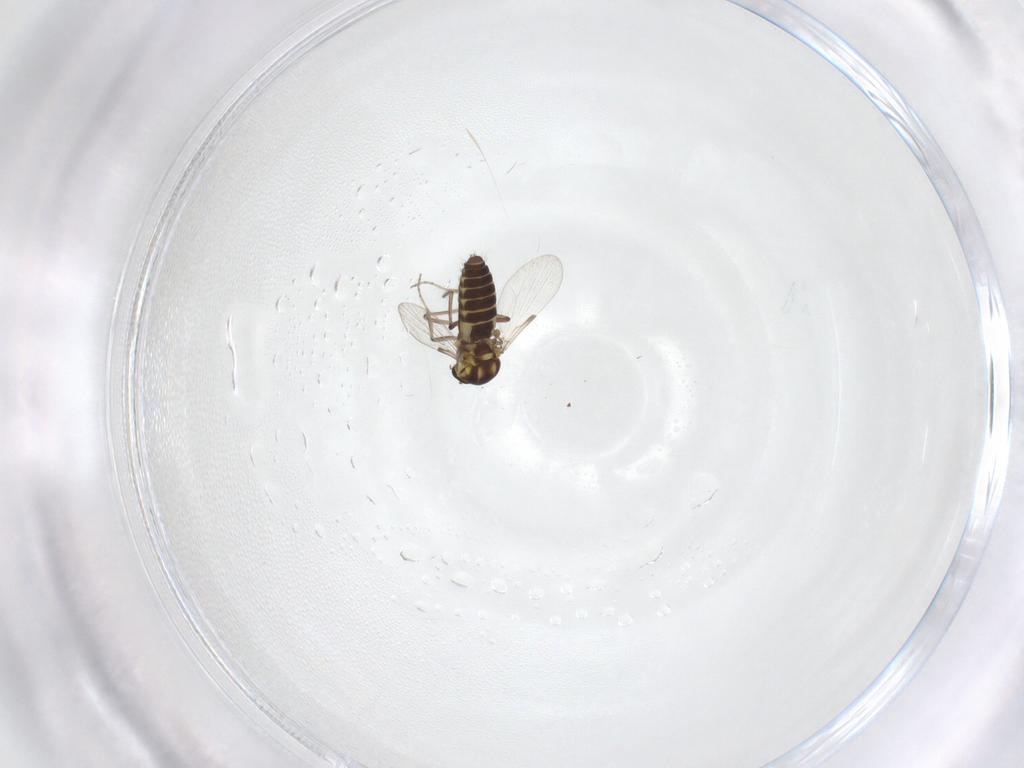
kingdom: Animalia
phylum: Arthropoda
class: Insecta
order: Diptera
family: Ceratopogonidae
